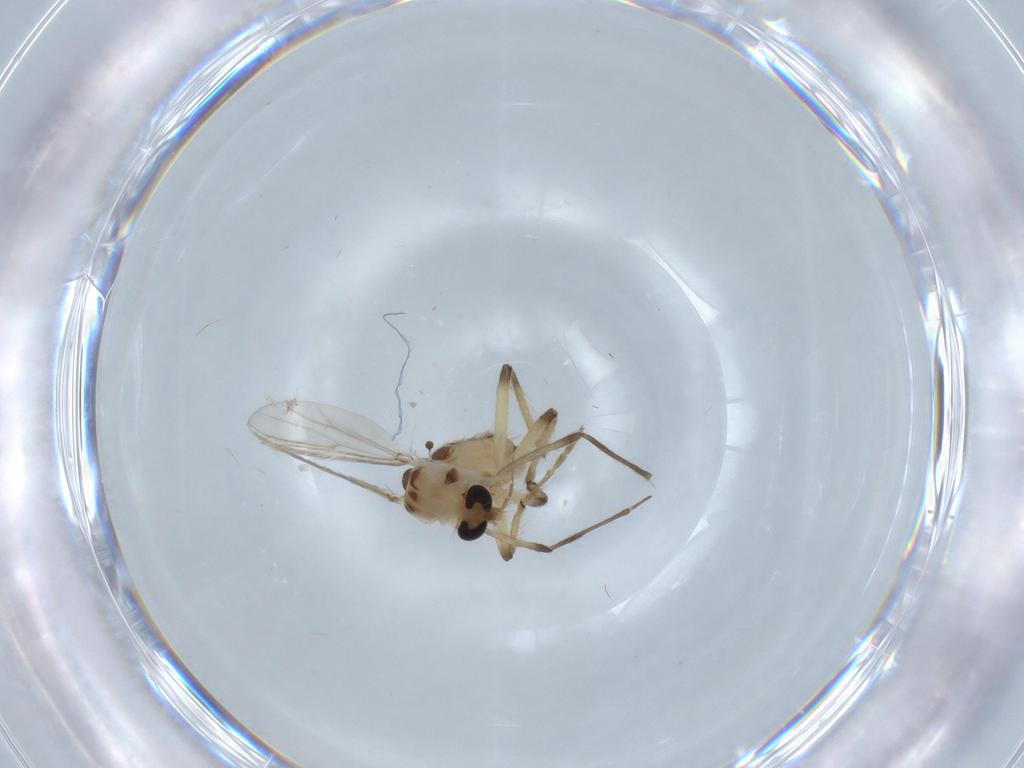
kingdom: Animalia
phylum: Arthropoda
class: Insecta
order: Diptera
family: Chironomidae
